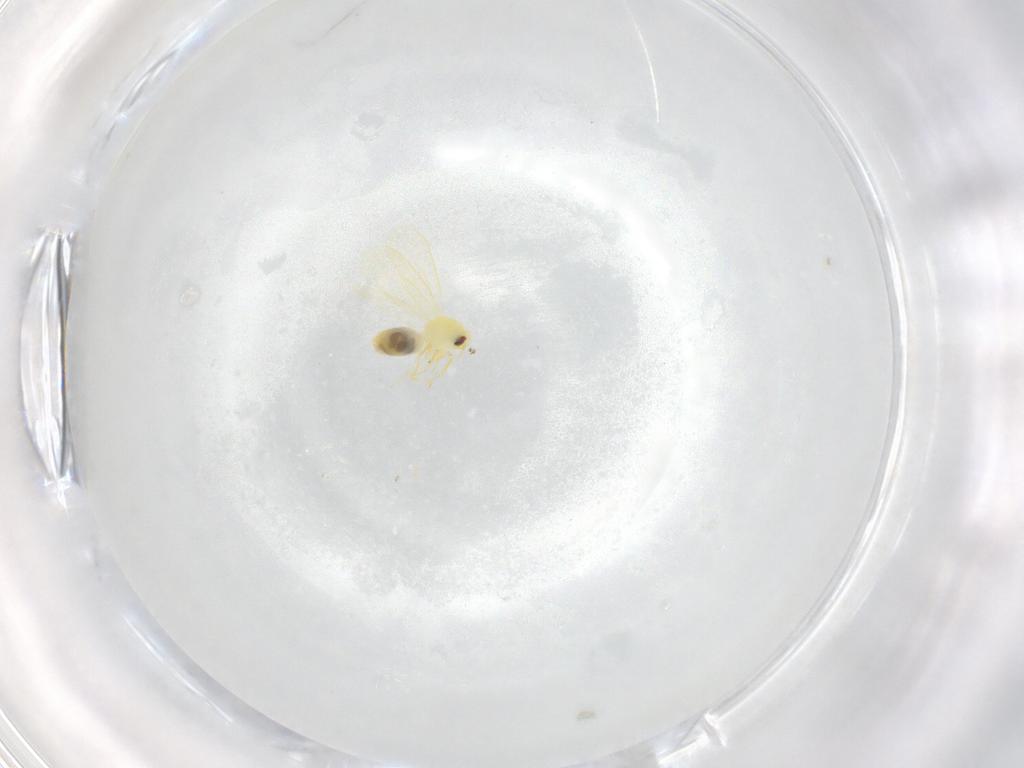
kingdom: Animalia
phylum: Arthropoda
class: Insecta
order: Hemiptera
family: Aleyrodidae
